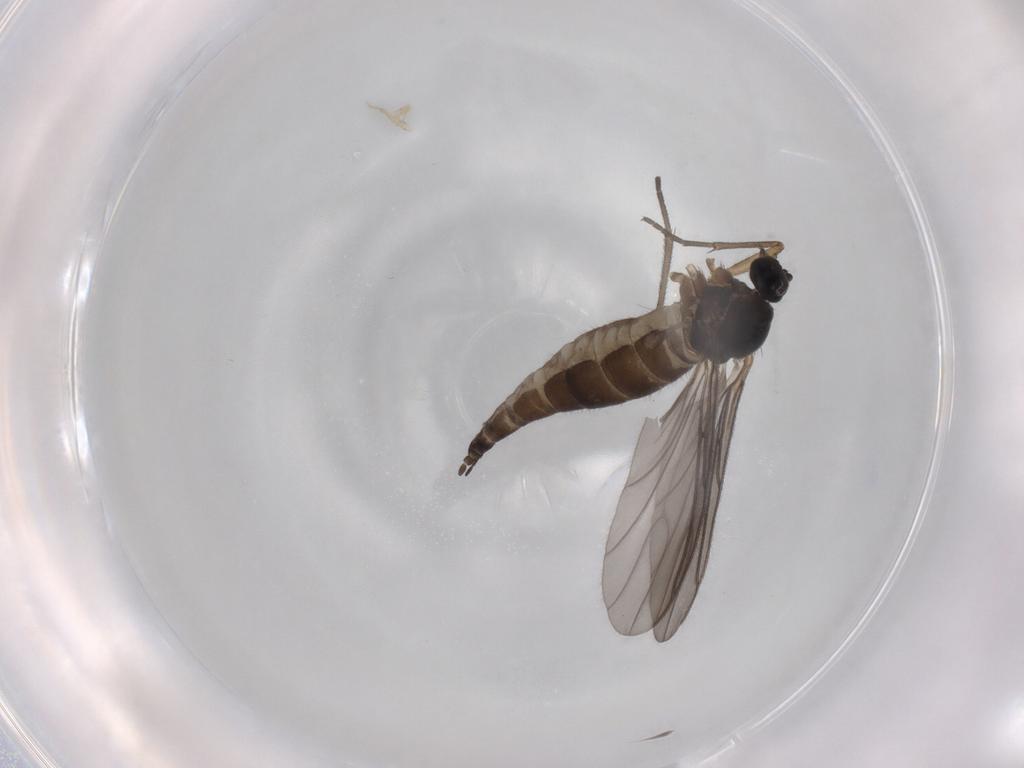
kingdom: Animalia
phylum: Arthropoda
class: Insecta
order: Diptera
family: Sciaridae
